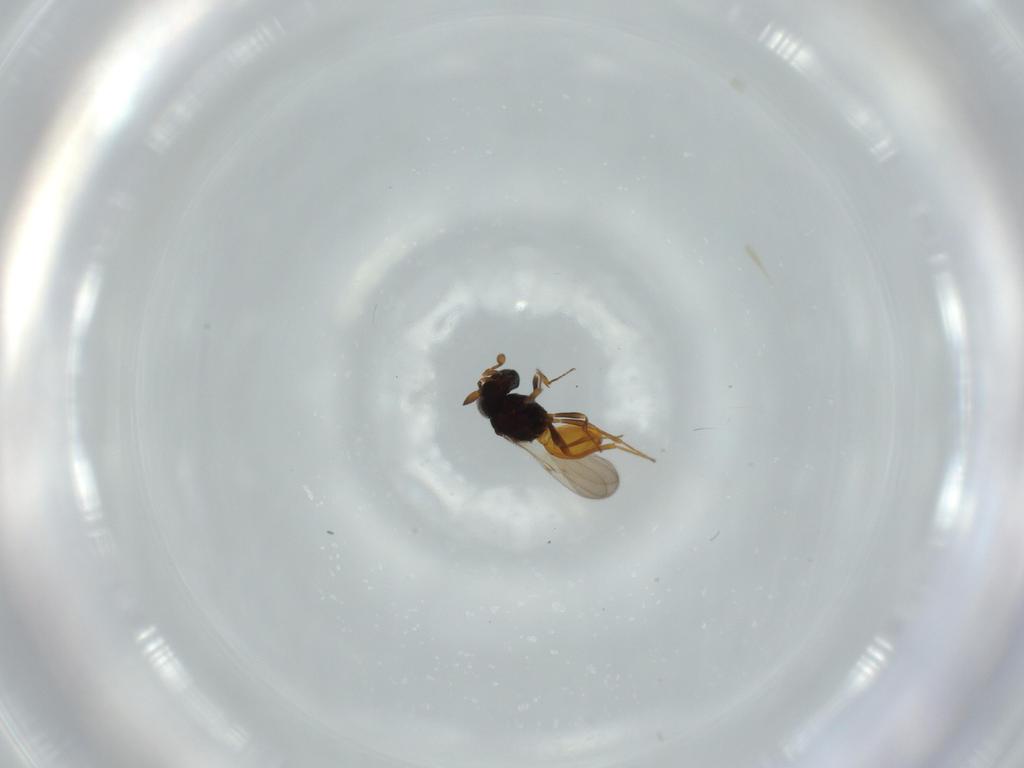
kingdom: Animalia
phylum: Arthropoda
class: Insecta
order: Hymenoptera
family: Scelionidae
